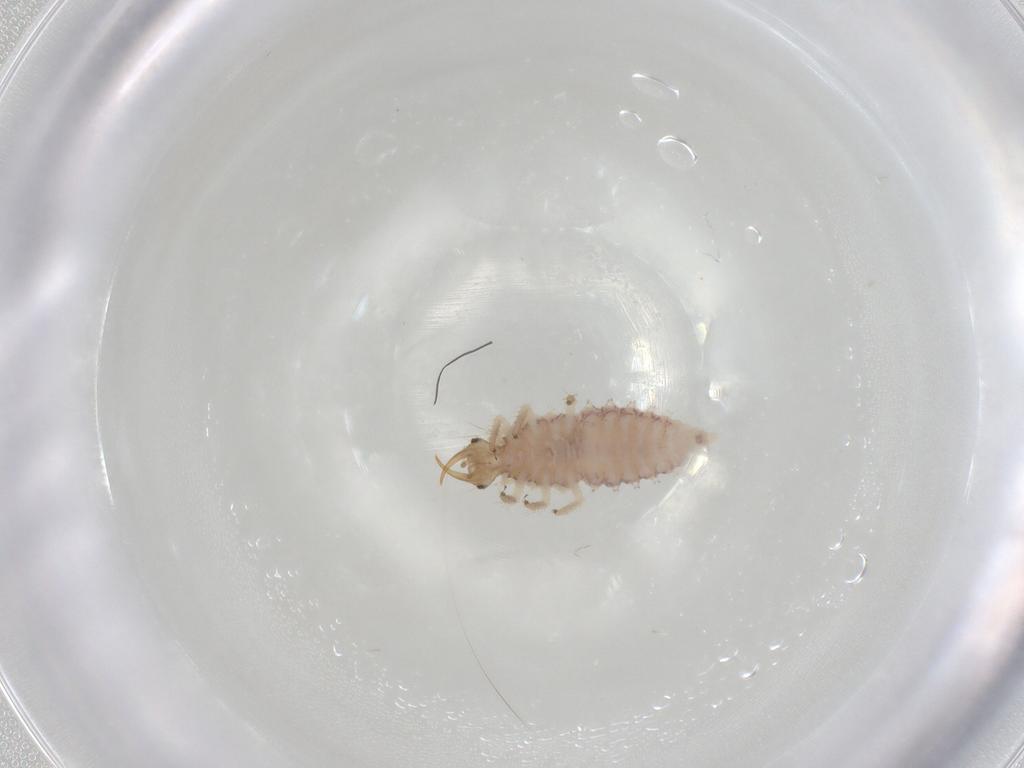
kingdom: Animalia
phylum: Arthropoda
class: Insecta
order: Neuroptera
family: Chrysopidae
